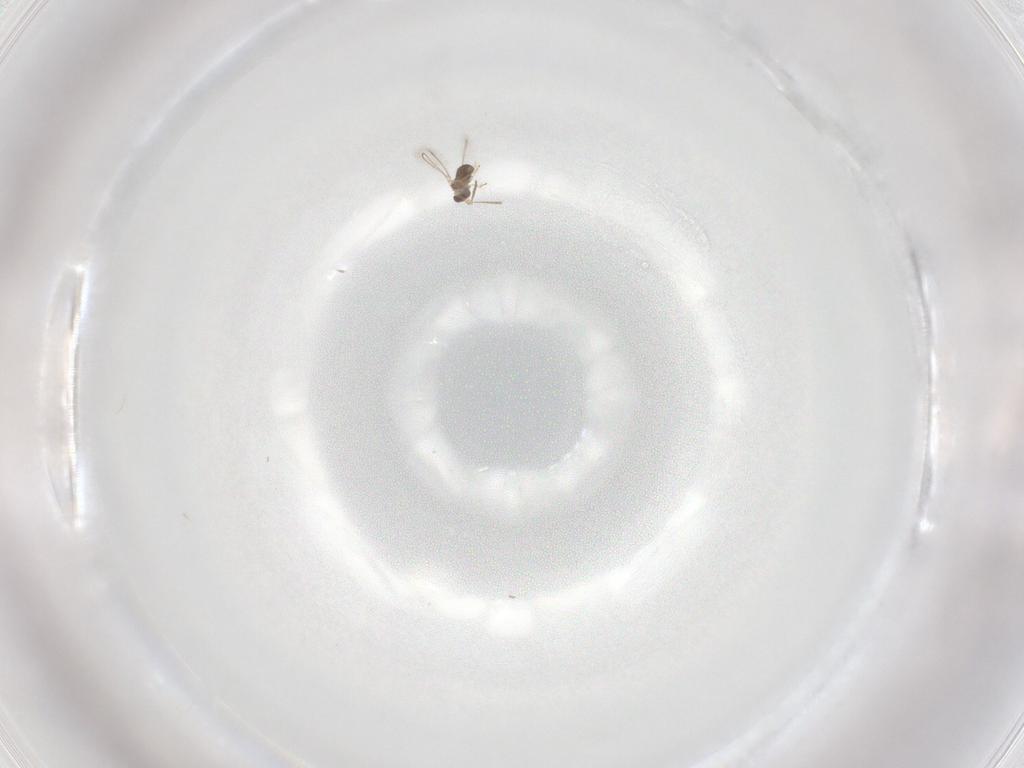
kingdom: Animalia
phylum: Arthropoda
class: Insecta
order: Hymenoptera
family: Mymaridae
